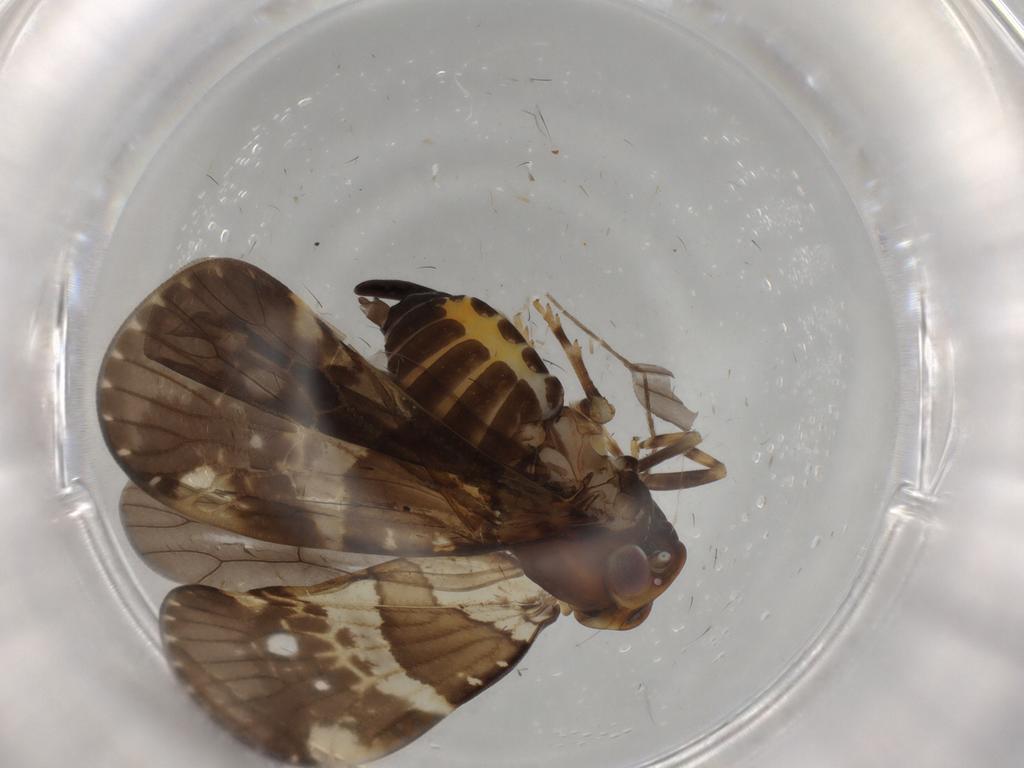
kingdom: Animalia
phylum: Arthropoda
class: Insecta
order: Hemiptera
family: Cixiidae
